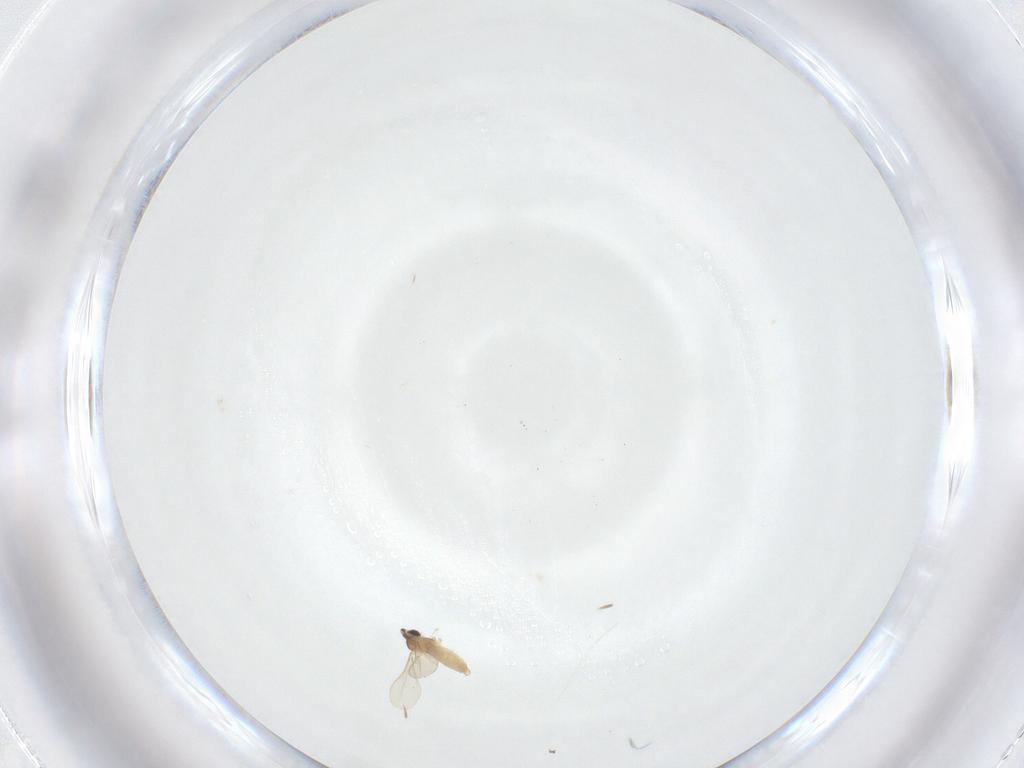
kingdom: Animalia
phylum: Arthropoda
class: Insecta
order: Diptera
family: Cecidomyiidae
